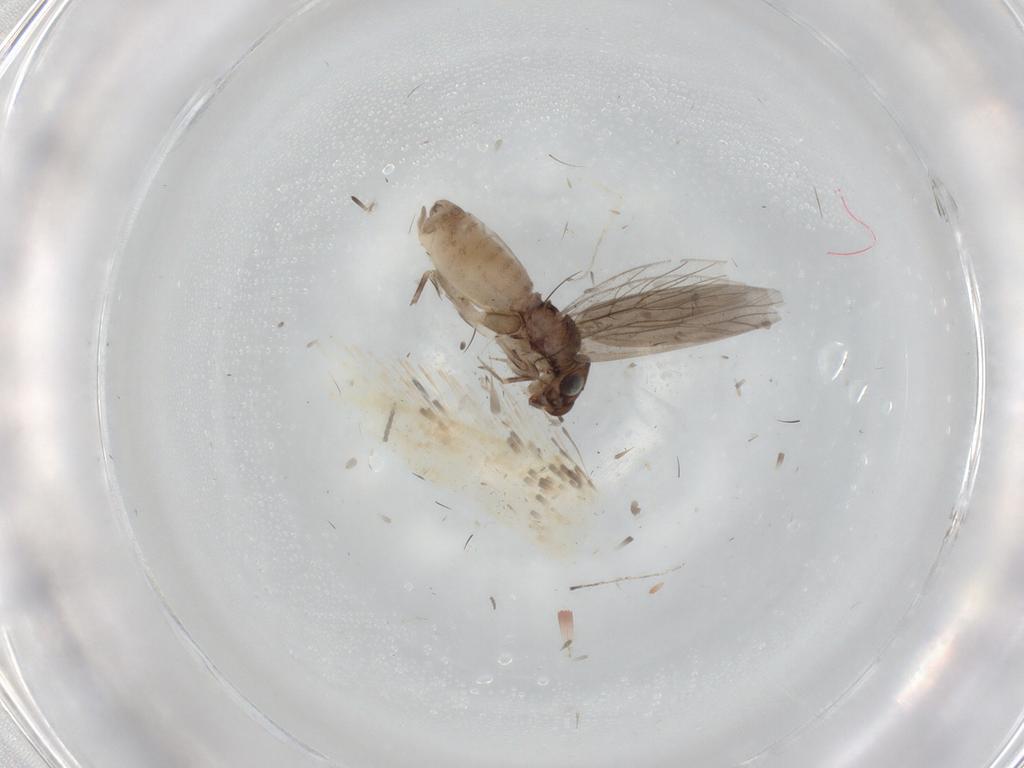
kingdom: Animalia
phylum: Arthropoda
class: Insecta
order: Psocodea
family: Lepidopsocidae
